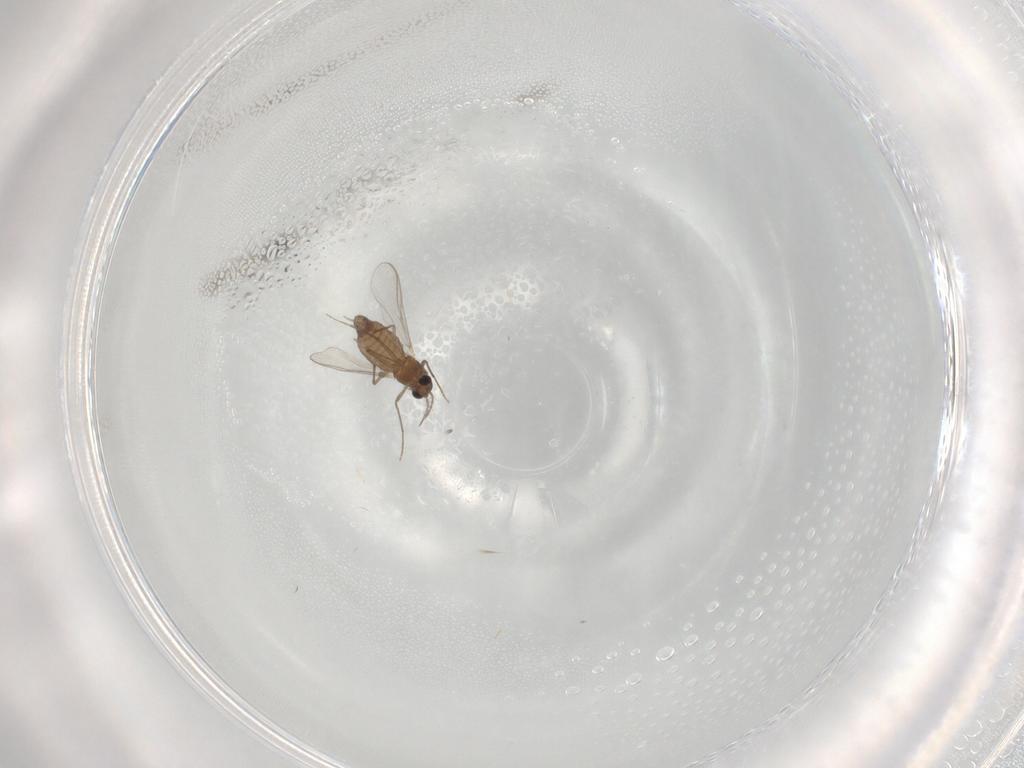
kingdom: Animalia
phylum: Arthropoda
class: Insecta
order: Diptera
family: Chironomidae
